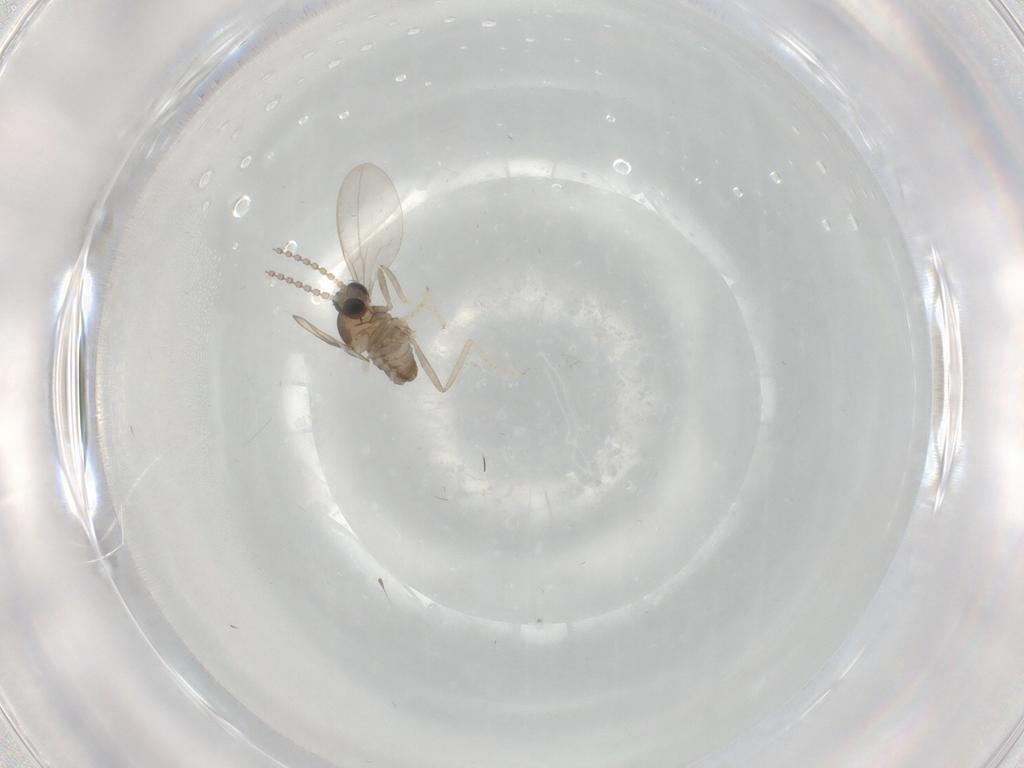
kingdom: Animalia
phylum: Arthropoda
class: Insecta
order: Diptera
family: Cecidomyiidae
